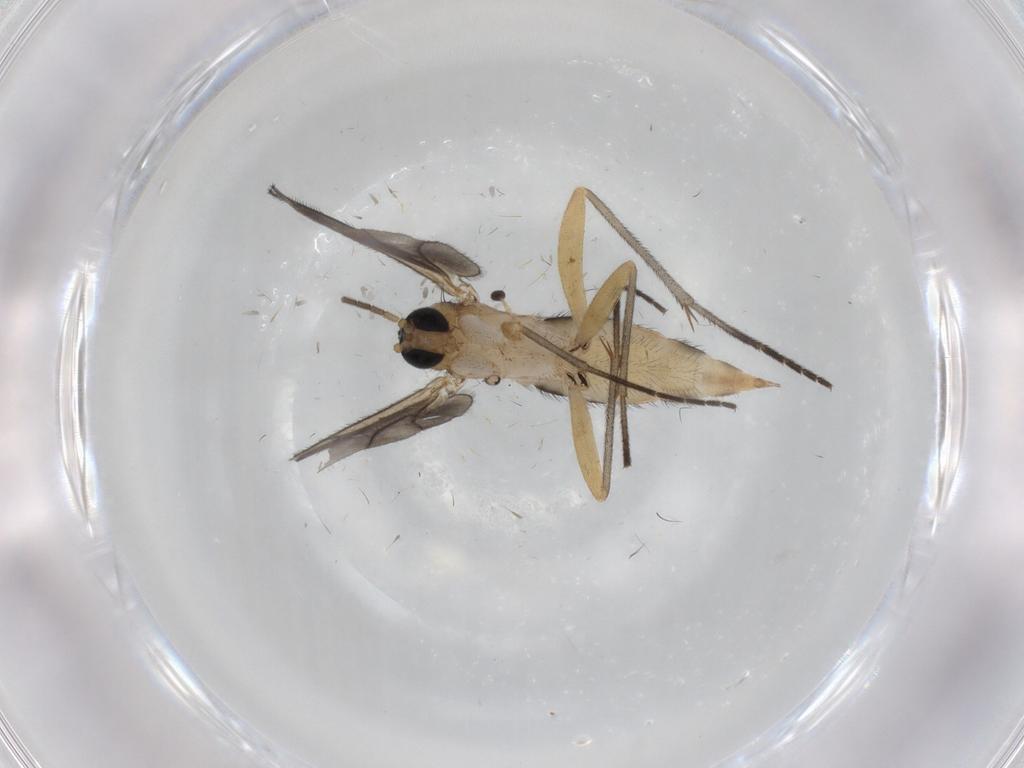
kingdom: Animalia
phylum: Arthropoda
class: Insecta
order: Diptera
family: Sciaridae
